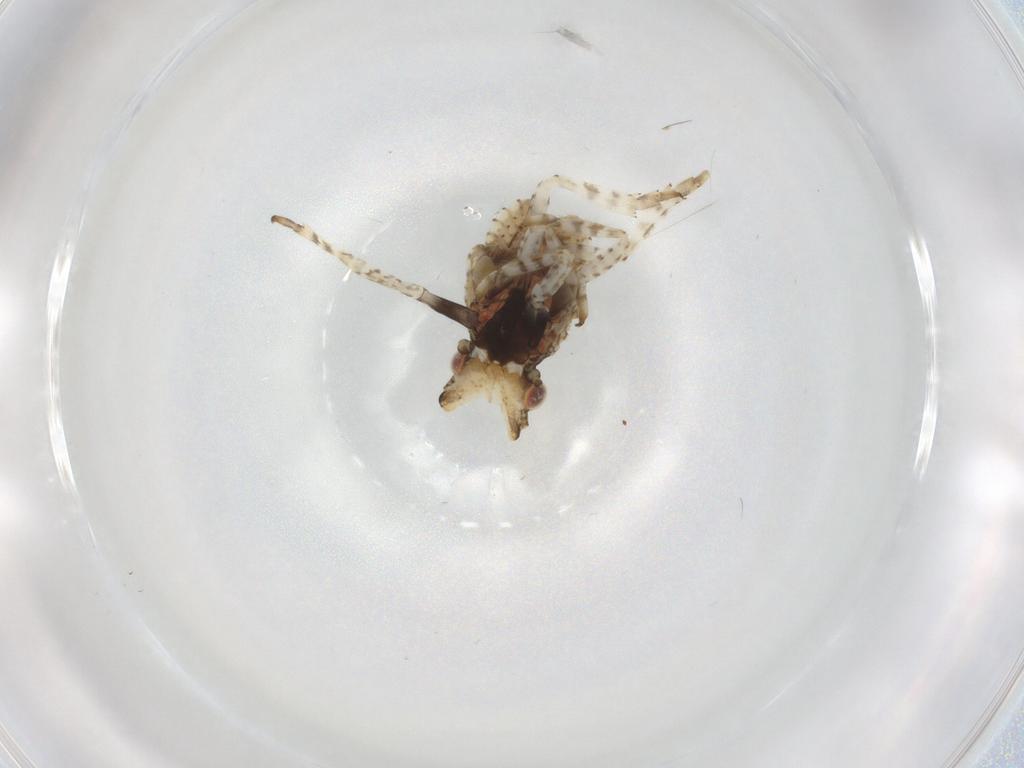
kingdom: Animalia
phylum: Arthropoda
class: Insecta
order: Hemiptera
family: Fulgoridae
